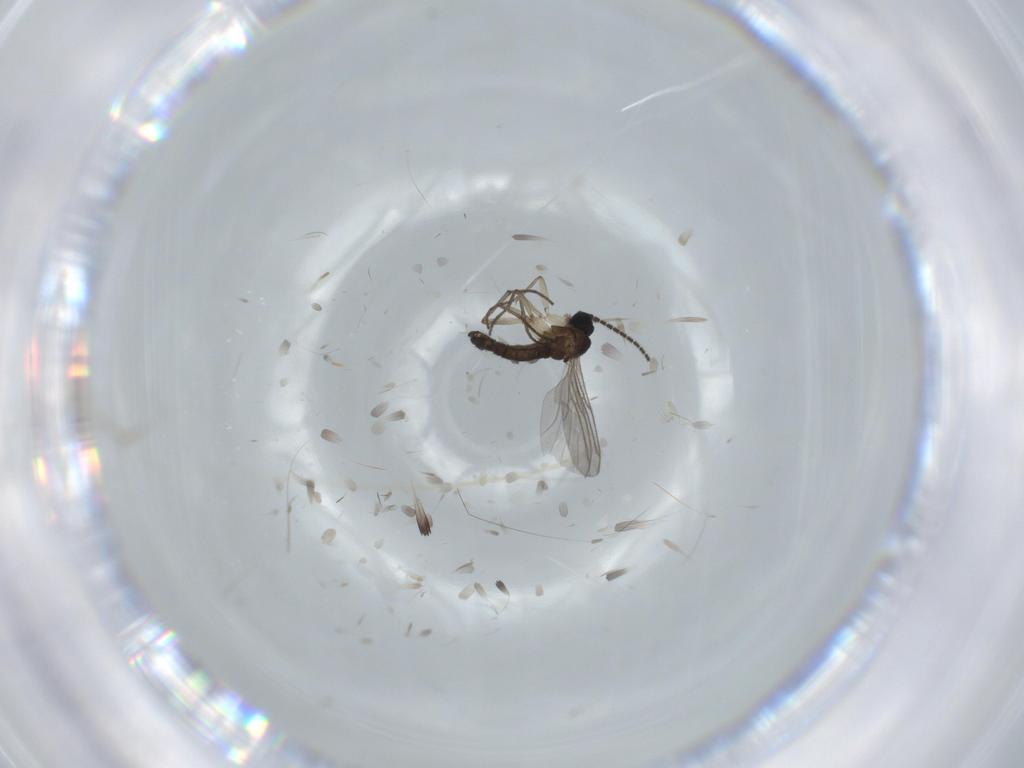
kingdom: Animalia
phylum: Arthropoda
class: Insecta
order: Diptera
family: Sciaridae
